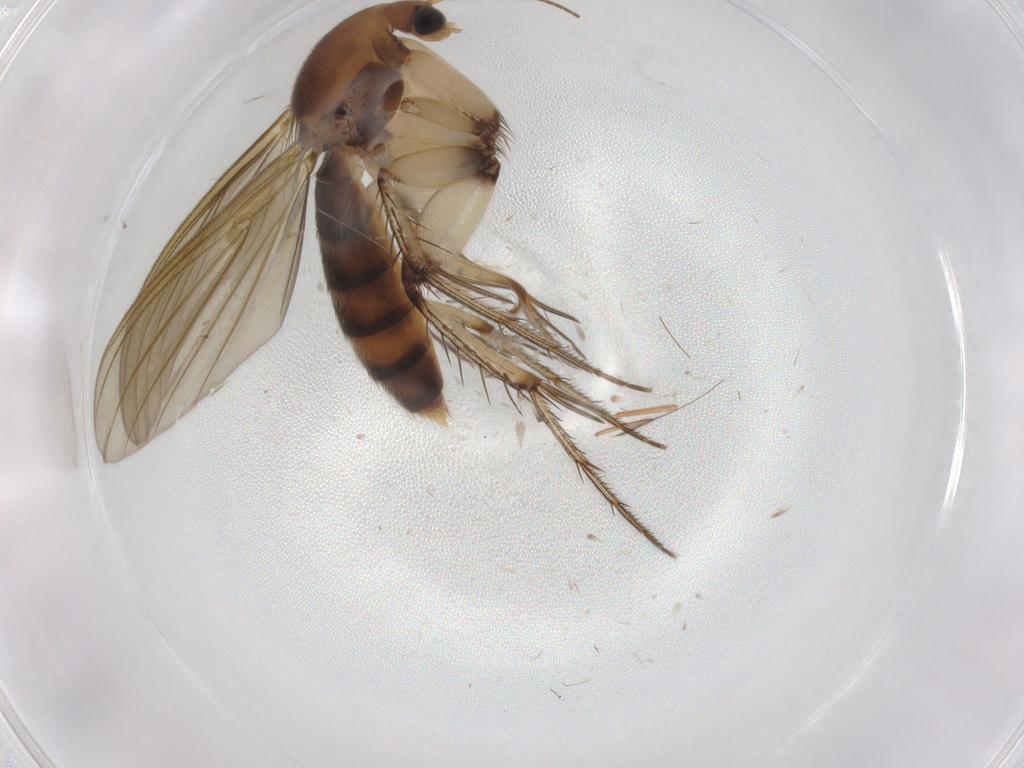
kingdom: Animalia
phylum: Arthropoda
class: Insecta
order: Diptera
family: Mycetophilidae
